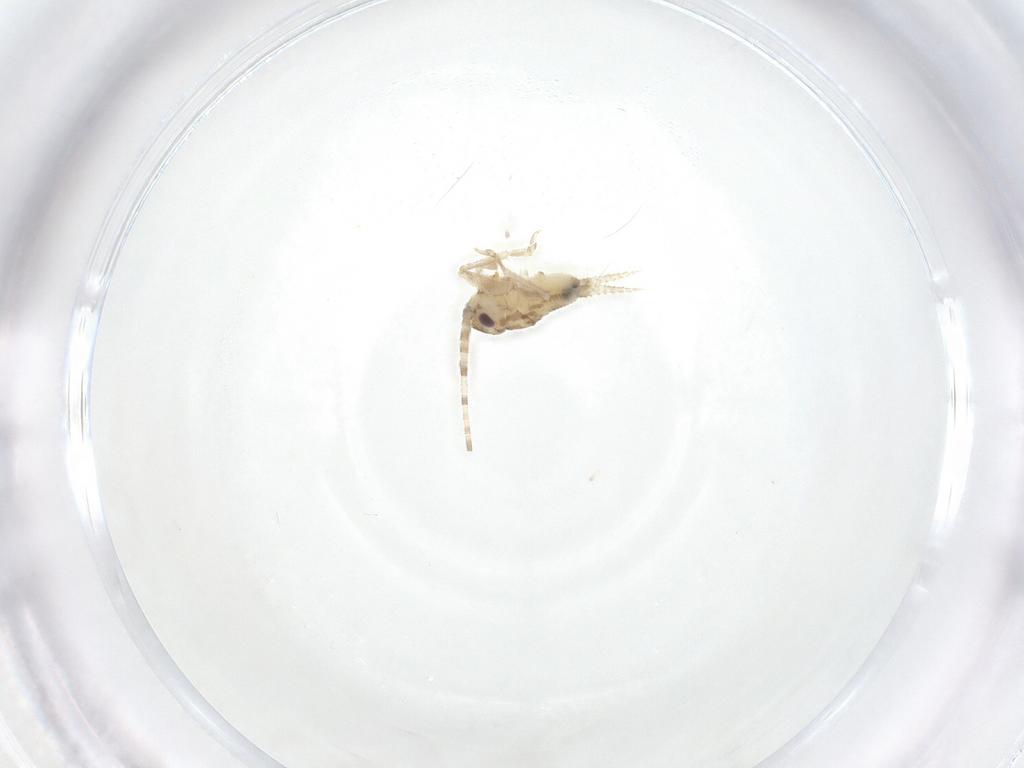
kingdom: Animalia
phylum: Arthropoda
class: Insecta
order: Orthoptera
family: Trigonidiidae
